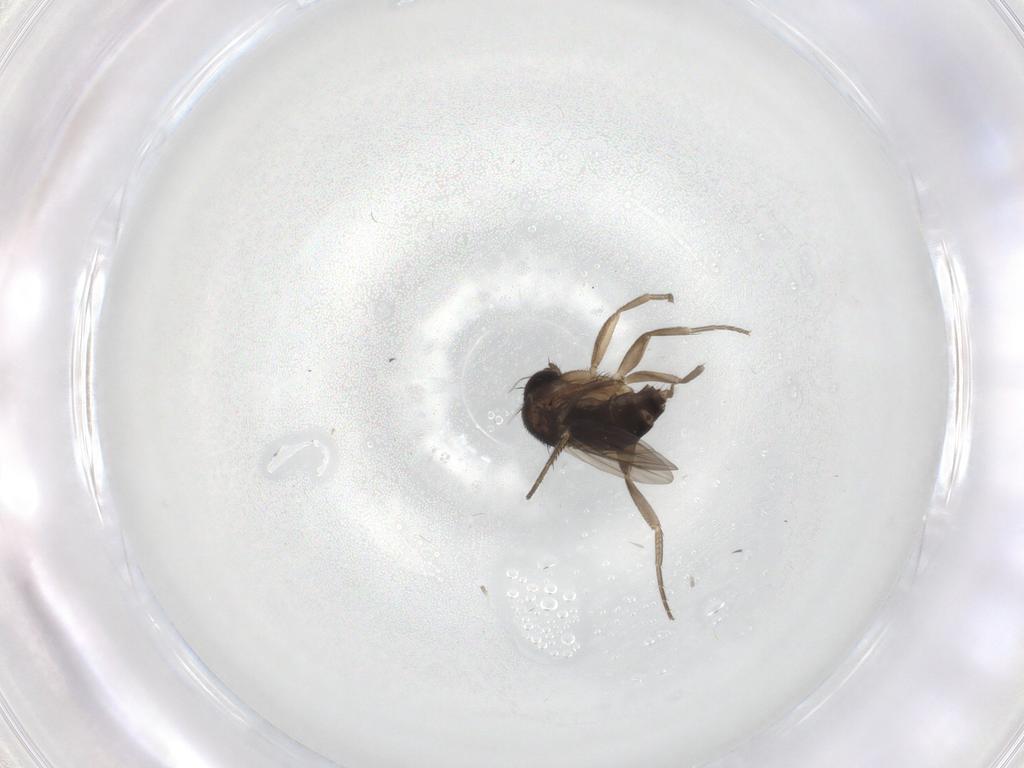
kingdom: Animalia
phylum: Arthropoda
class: Insecta
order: Diptera
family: Phoridae
